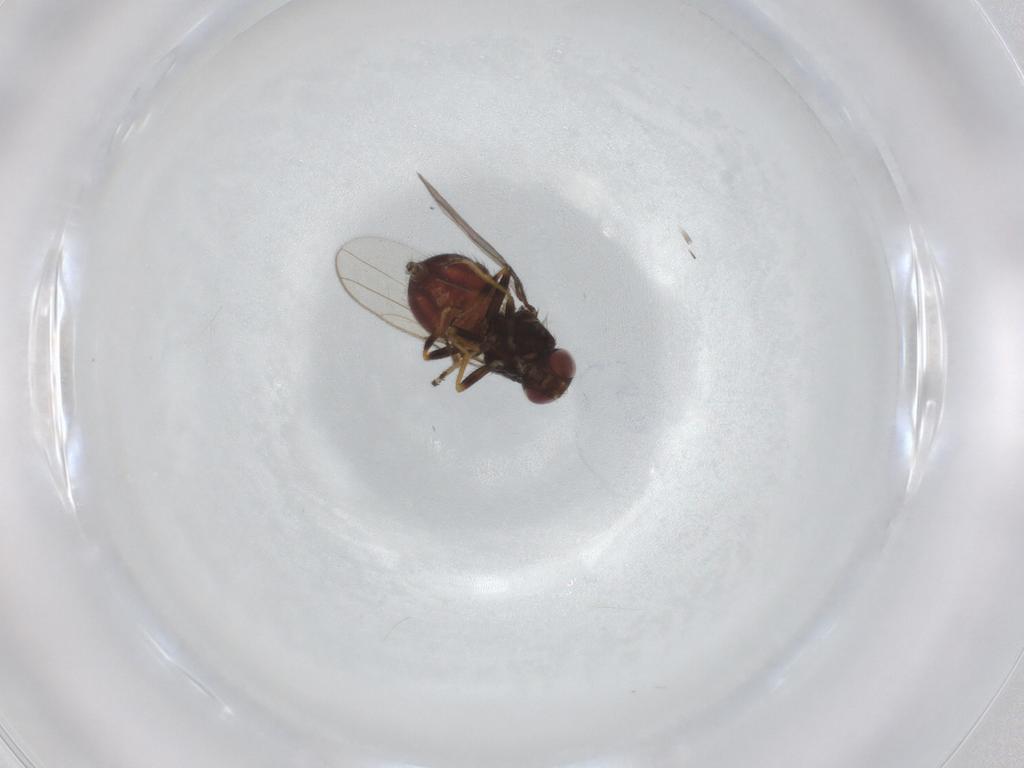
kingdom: Animalia
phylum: Arthropoda
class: Insecta
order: Diptera
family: Chloropidae
